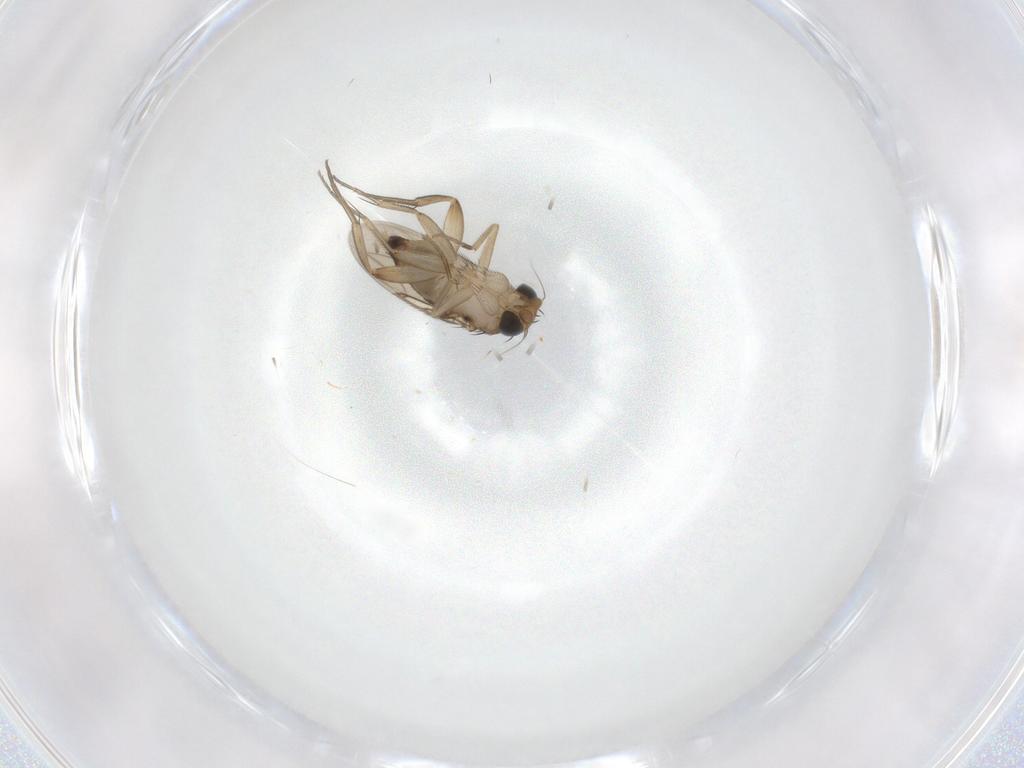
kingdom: Animalia
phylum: Arthropoda
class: Insecta
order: Diptera
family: Phoridae
